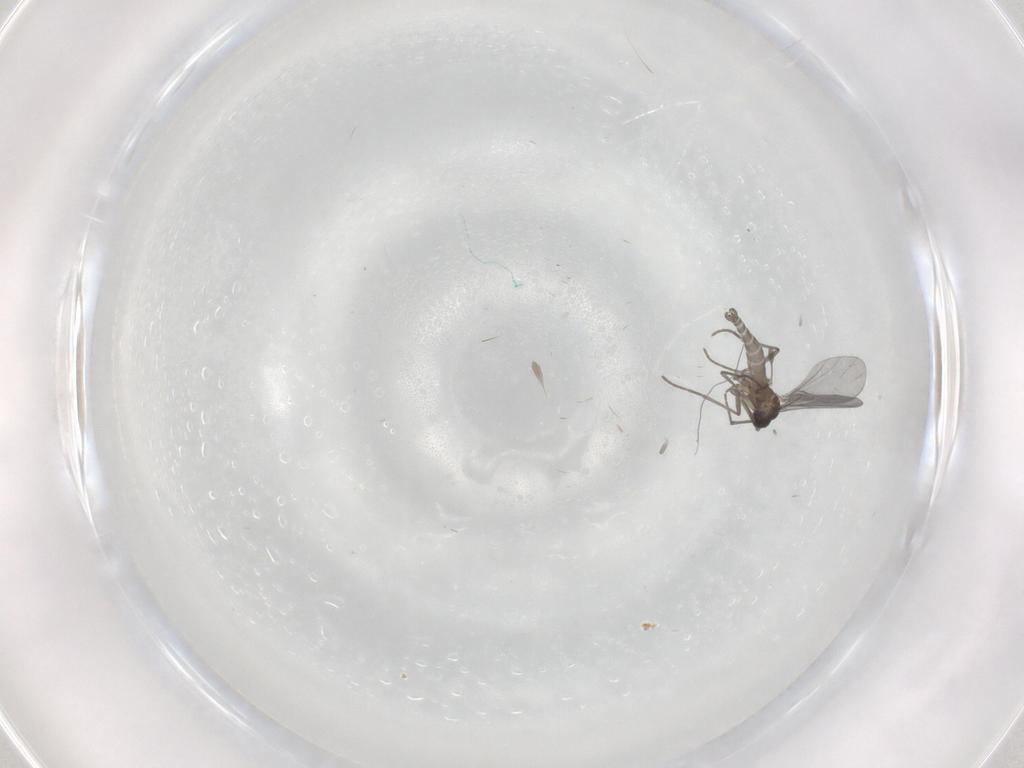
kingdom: Animalia
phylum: Arthropoda
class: Insecta
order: Diptera
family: Sciaridae
